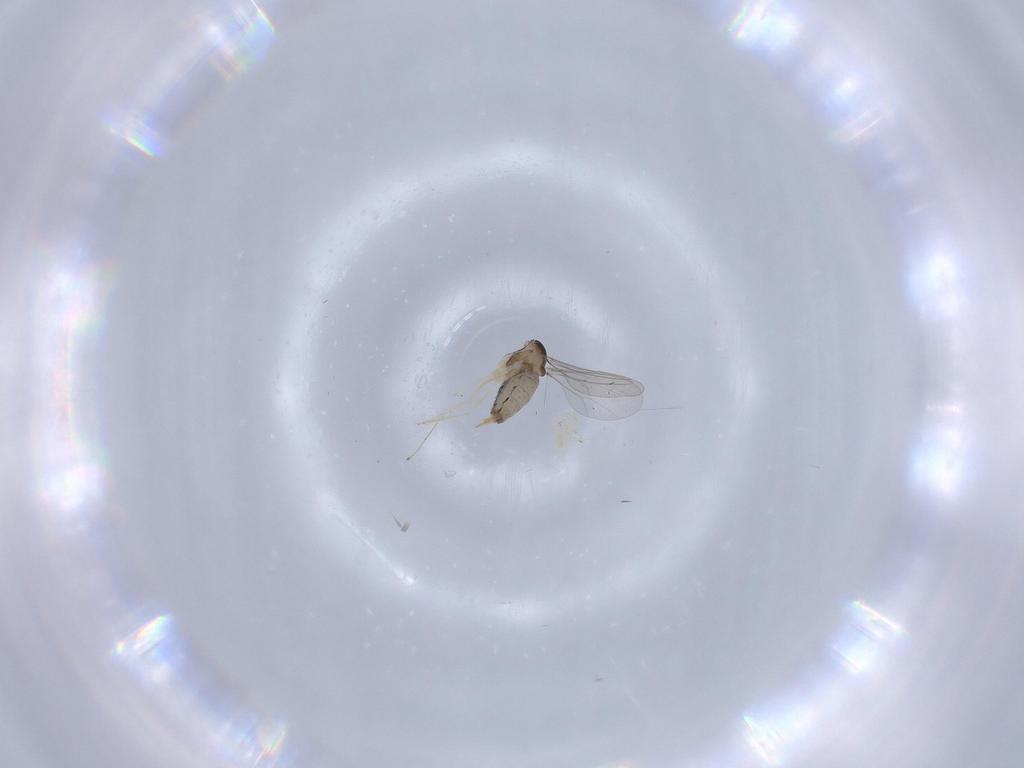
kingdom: Animalia
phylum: Arthropoda
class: Insecta
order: Diptera
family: Cecidomyiidae
